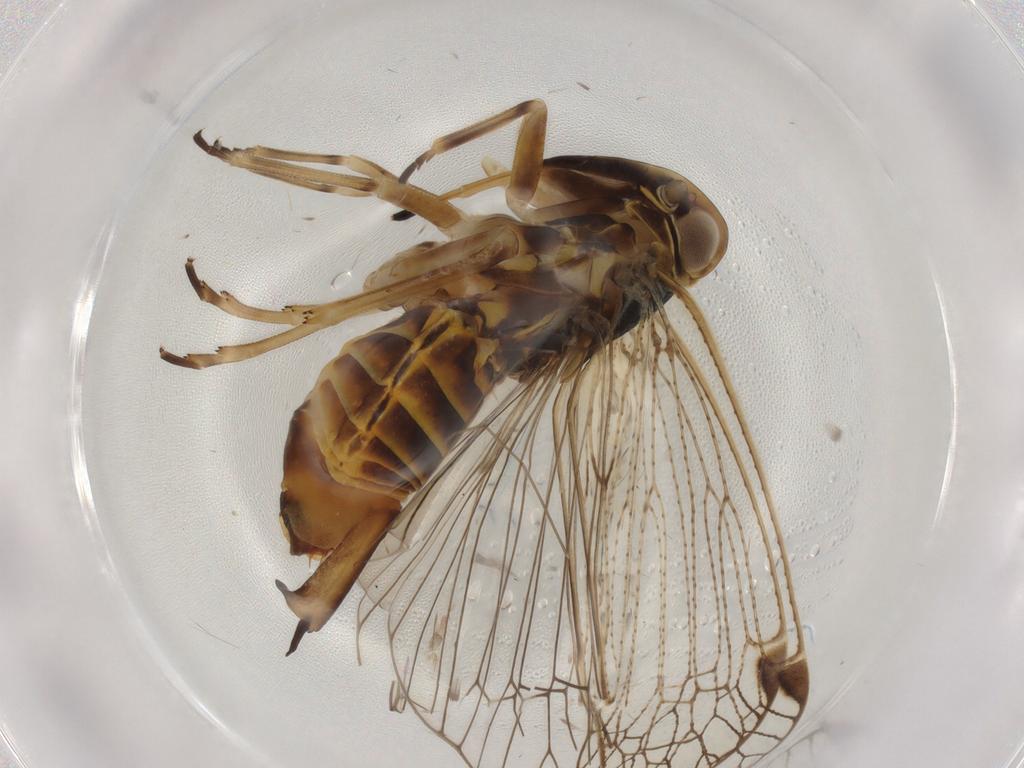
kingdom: Animalia
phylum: Arthropoda
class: Insecta
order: Hemiptera
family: Cixiidae
